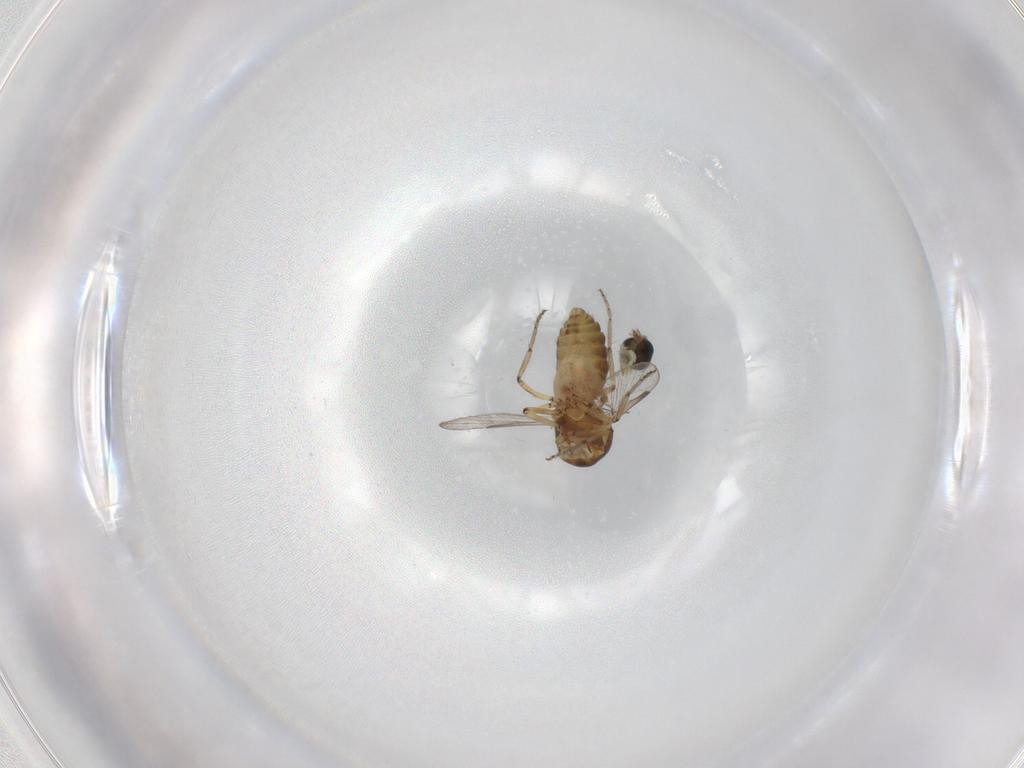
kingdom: Animalia
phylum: Arthropoda
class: Insecta
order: Diptera
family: Ceratopogonidae
